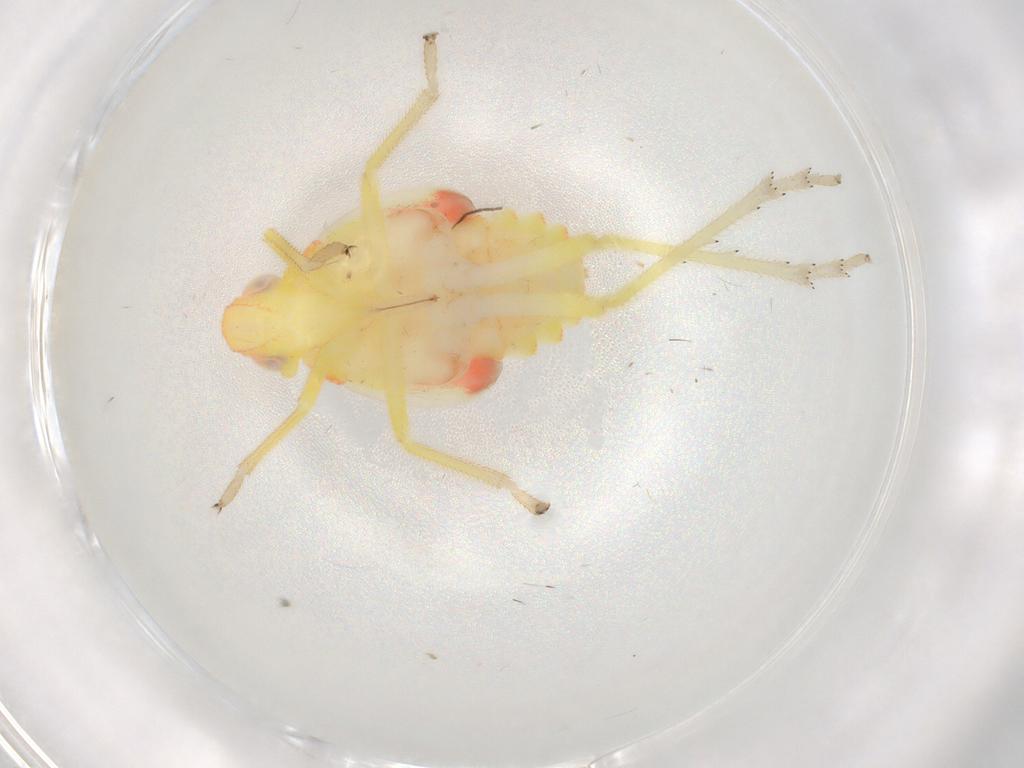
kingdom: Animalia
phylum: Arthropoda
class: Insecta
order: Hemiptera
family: Tropiduchidae
